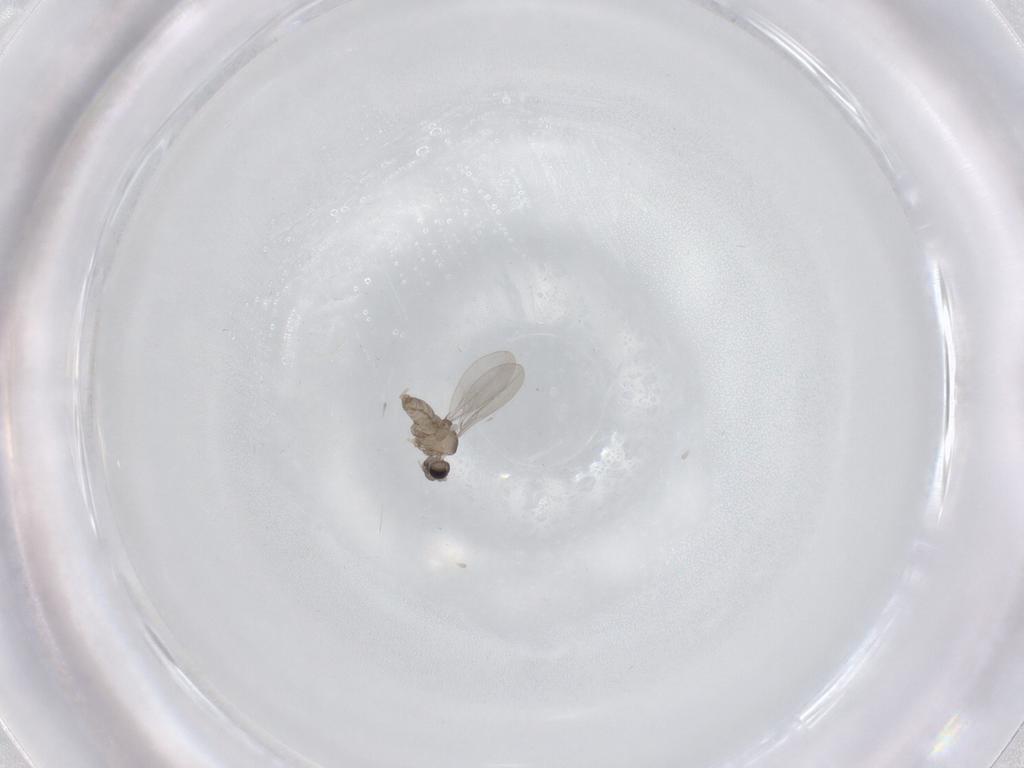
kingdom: Animalia
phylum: Arthropoda
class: Insecta
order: Diptera
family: Cecidomyiidae
